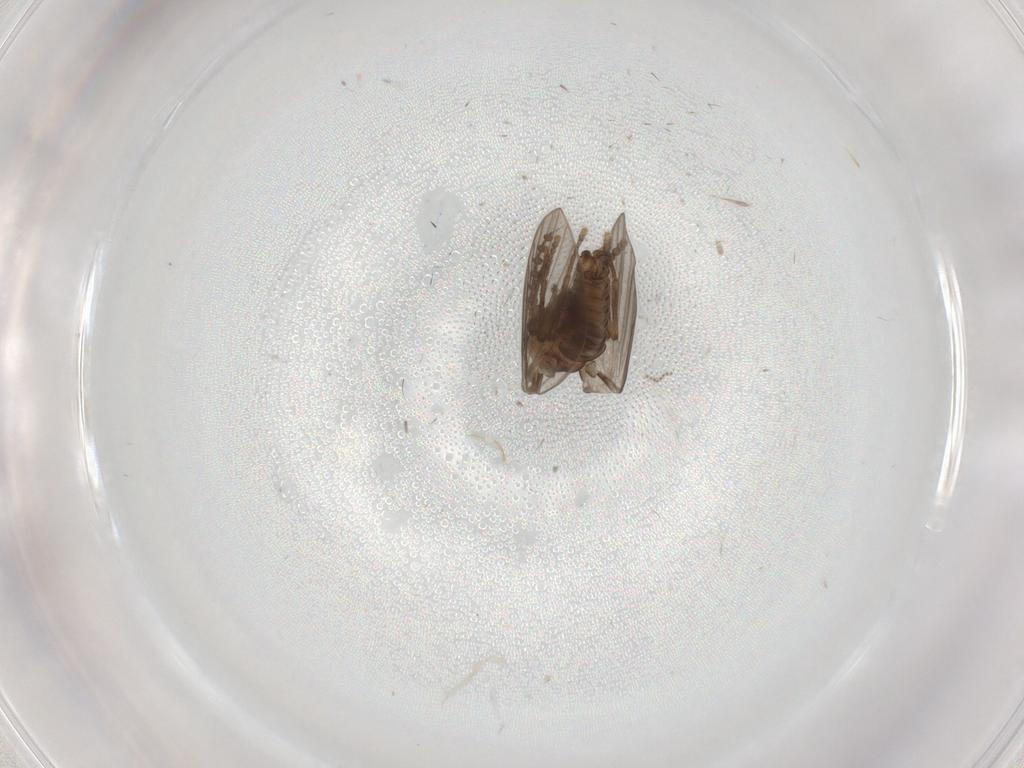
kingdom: Animalia
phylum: Arthropoda
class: Insecta
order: Diptera
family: Psychodidae
